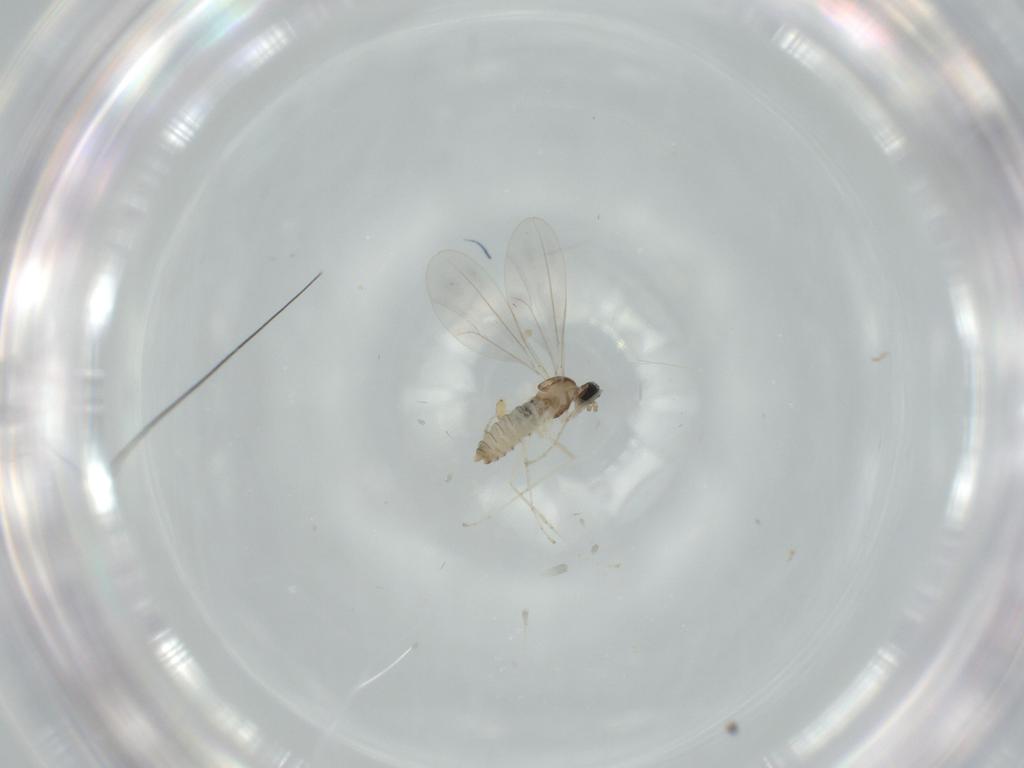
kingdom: Animalia
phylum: Arthropoda
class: Insecta
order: Diptera
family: Cecidomyiidae
